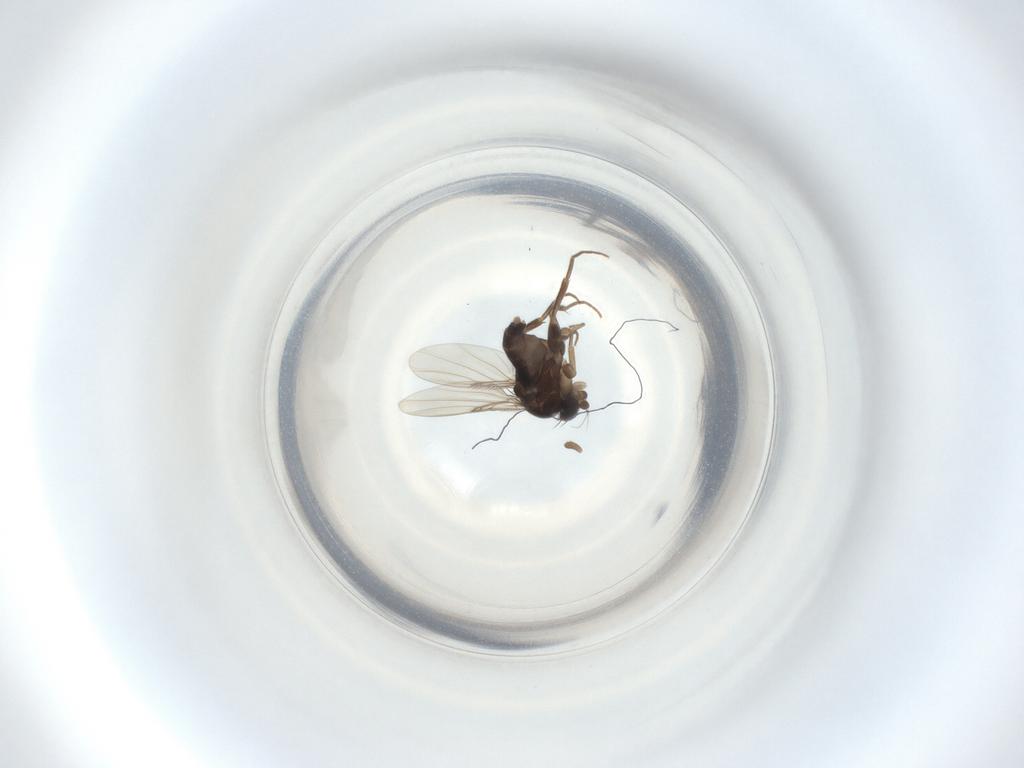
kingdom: Animalia
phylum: Arthropoda
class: Insecta
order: Diptera
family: Phoridae
